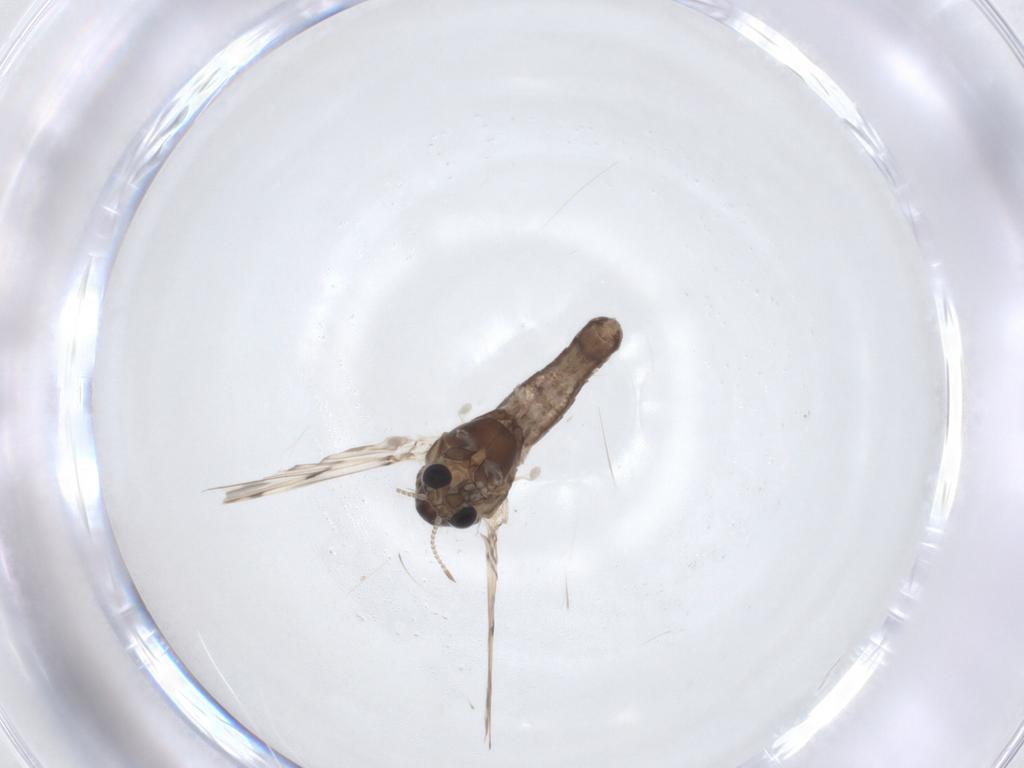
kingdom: Animalia
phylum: Arthropoda
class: Insecta
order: Diptera
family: Chironomidae
